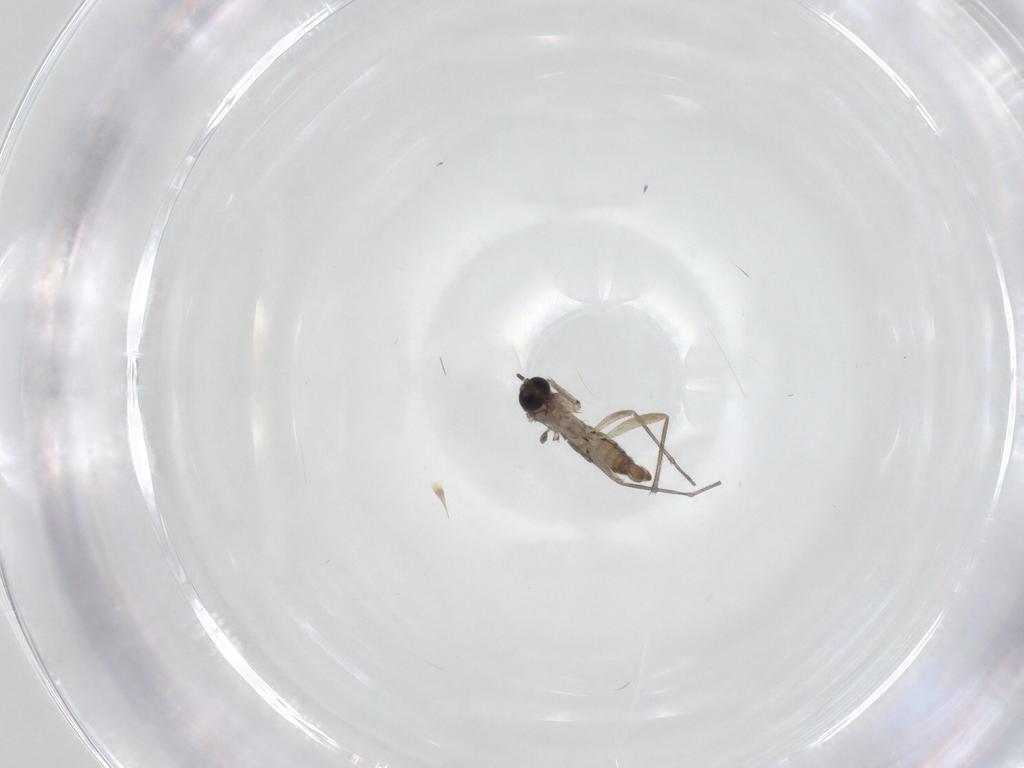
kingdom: Animalia
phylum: Arthropoda
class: Insecta
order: Diptera
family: Sciaridae
